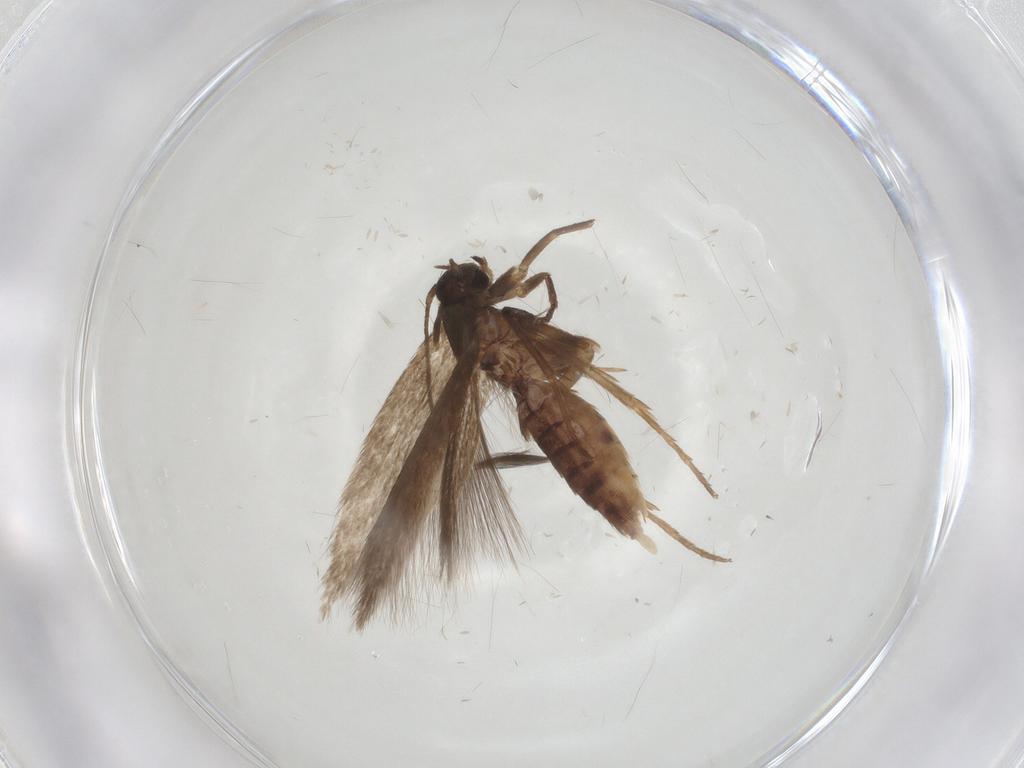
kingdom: Animalia
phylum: Arthropoda
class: Insecta
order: Lepidoptera
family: Scythrididae
